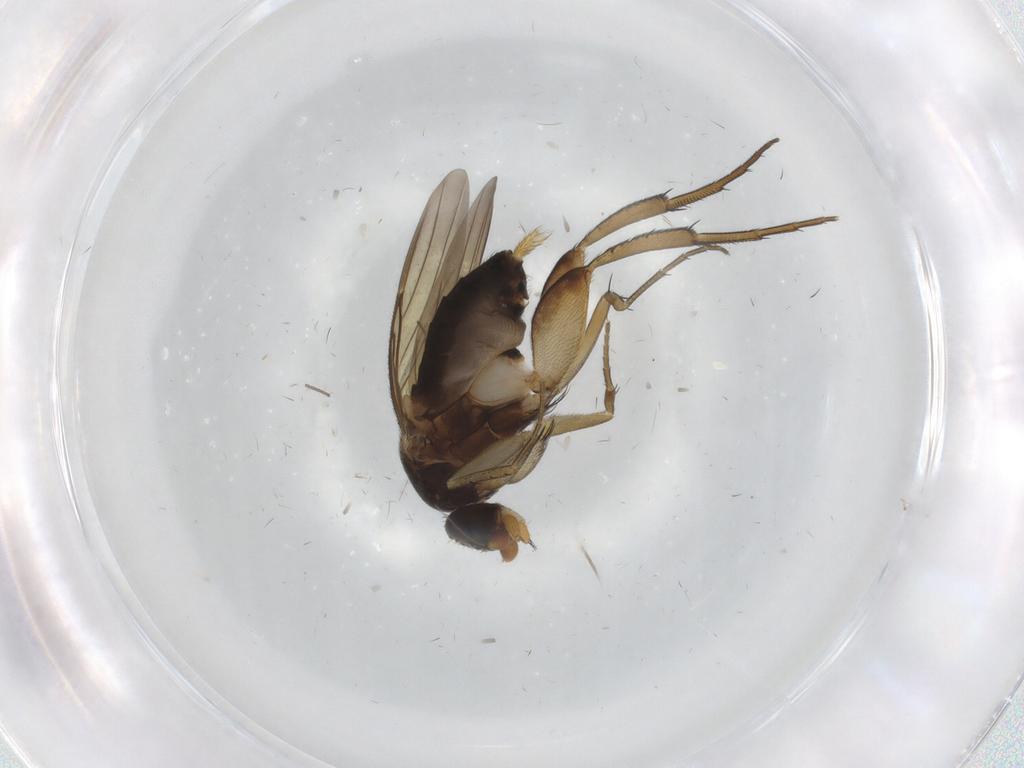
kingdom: Animalia
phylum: Arthropoda
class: Insecta
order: Diptera
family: Phoridae
